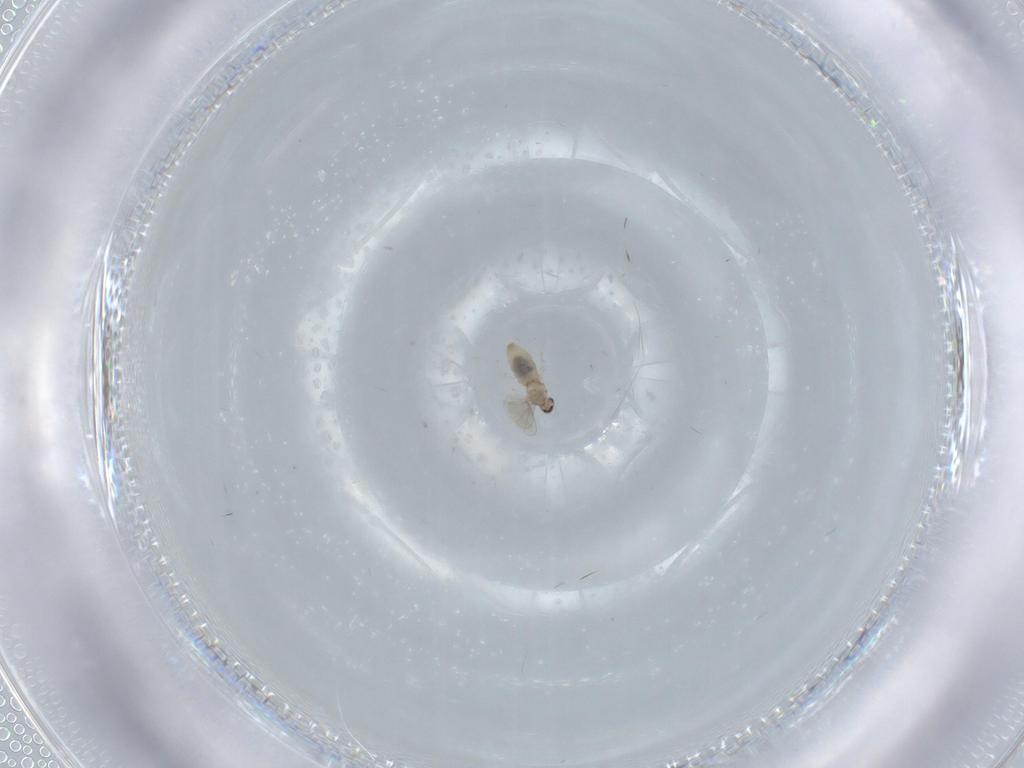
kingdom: Animalia
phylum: Arthropoda
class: Insecta
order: Diptera
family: Cecidomyiidae
